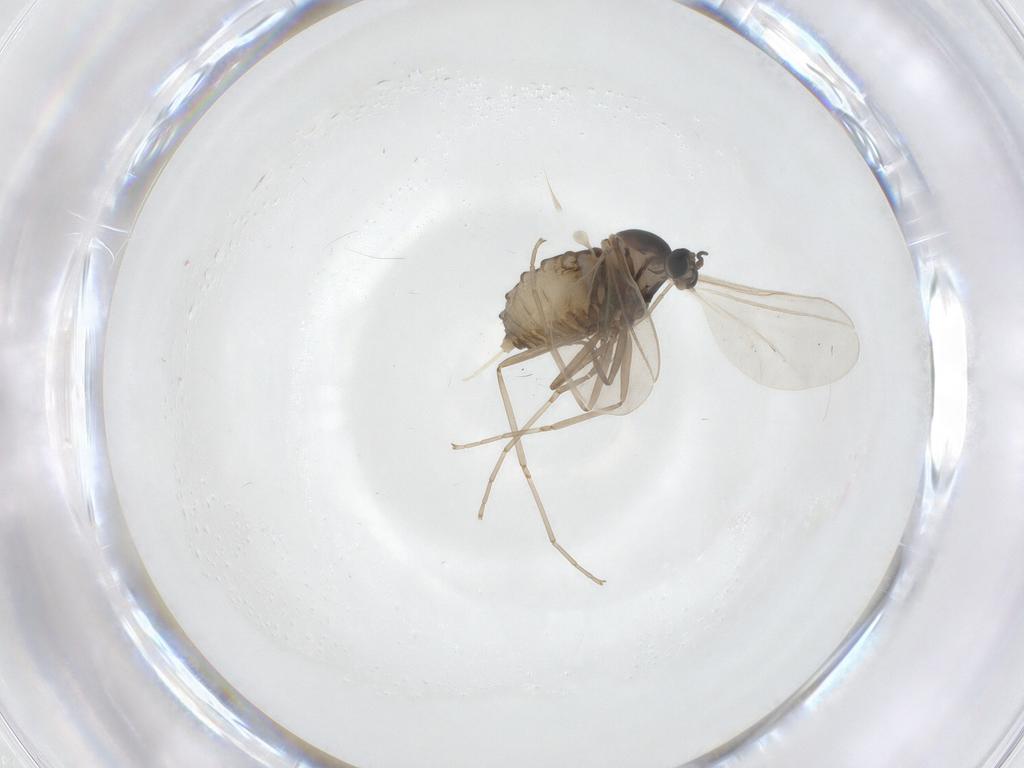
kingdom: Animalia
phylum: Arthropoda
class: Insecta
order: Diptera
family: Cecidomyiidae
